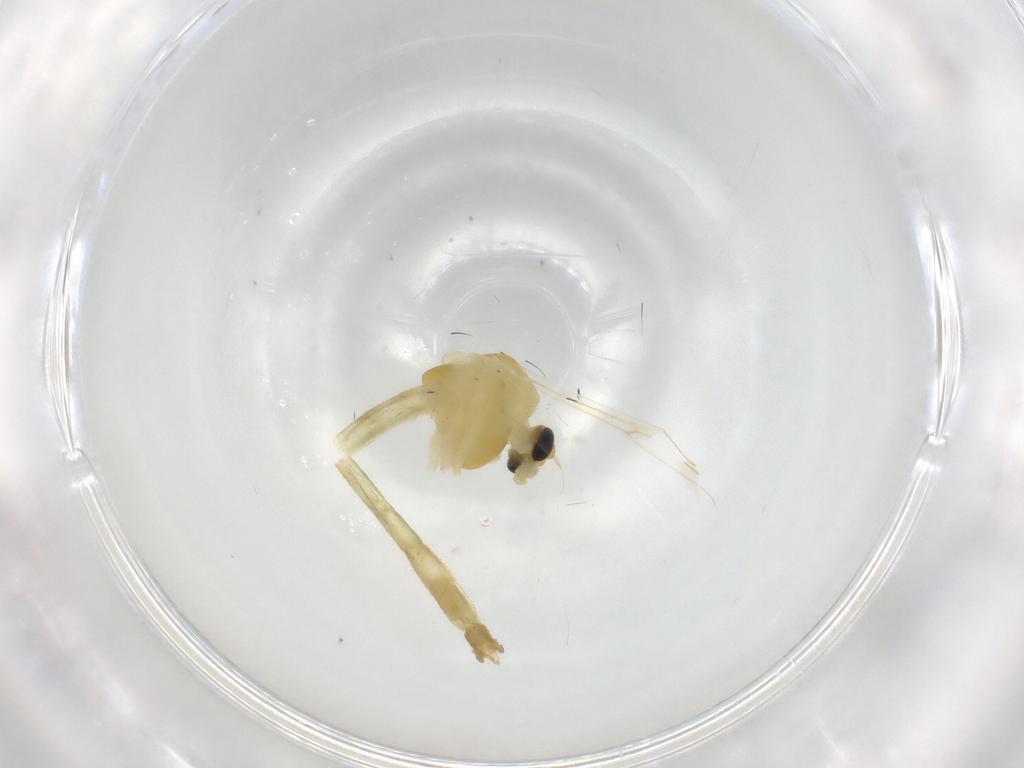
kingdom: Animalia
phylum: Arthropoda
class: Insecta
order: Diptera
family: Chironomidae
